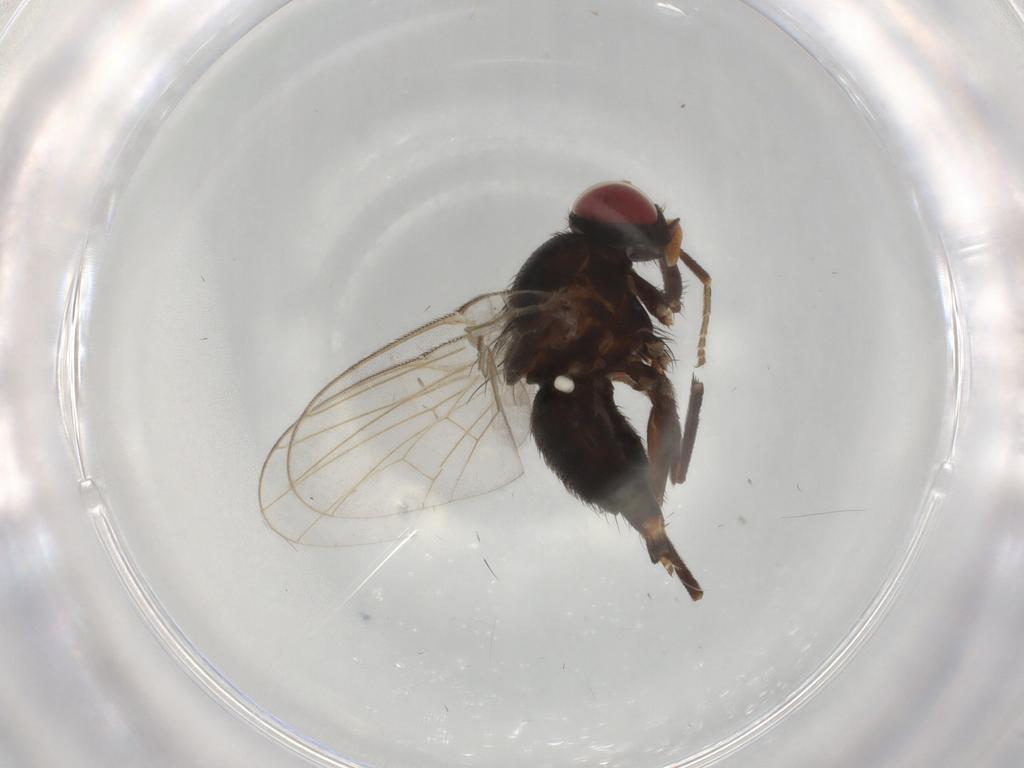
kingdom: Animalia
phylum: Arthropoda
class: Insecta
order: Diptera
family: Agromyzidae
